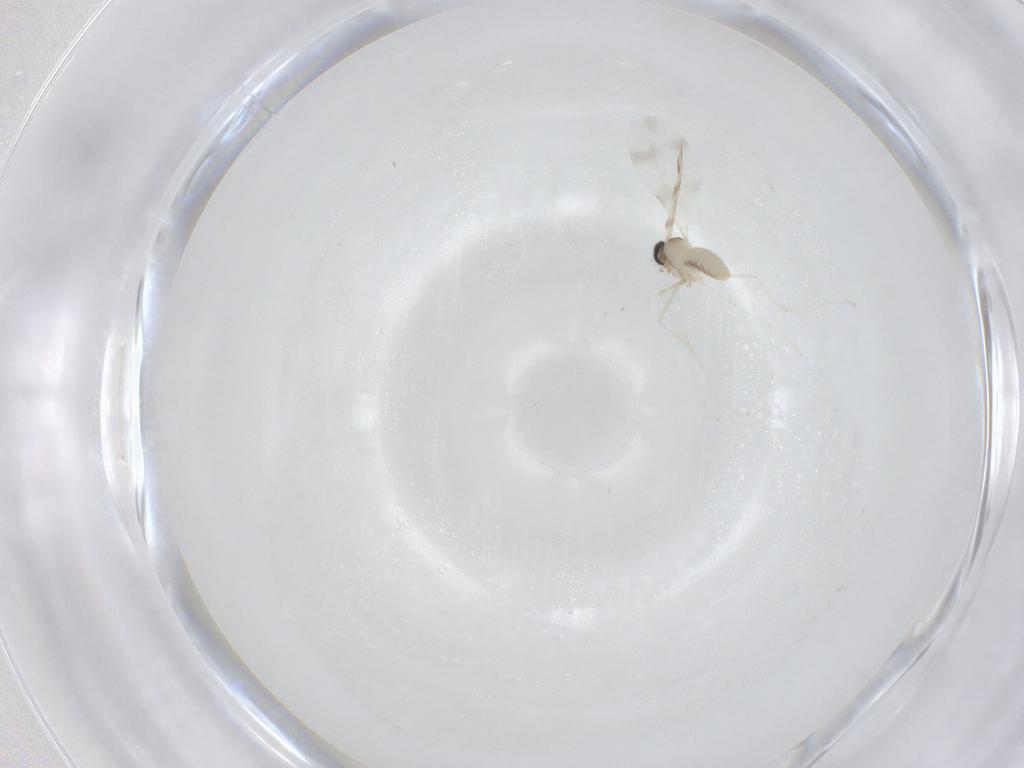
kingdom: Animalia
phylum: Arthropoda
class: Insecta
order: Diptera
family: Cecidomyiidae
